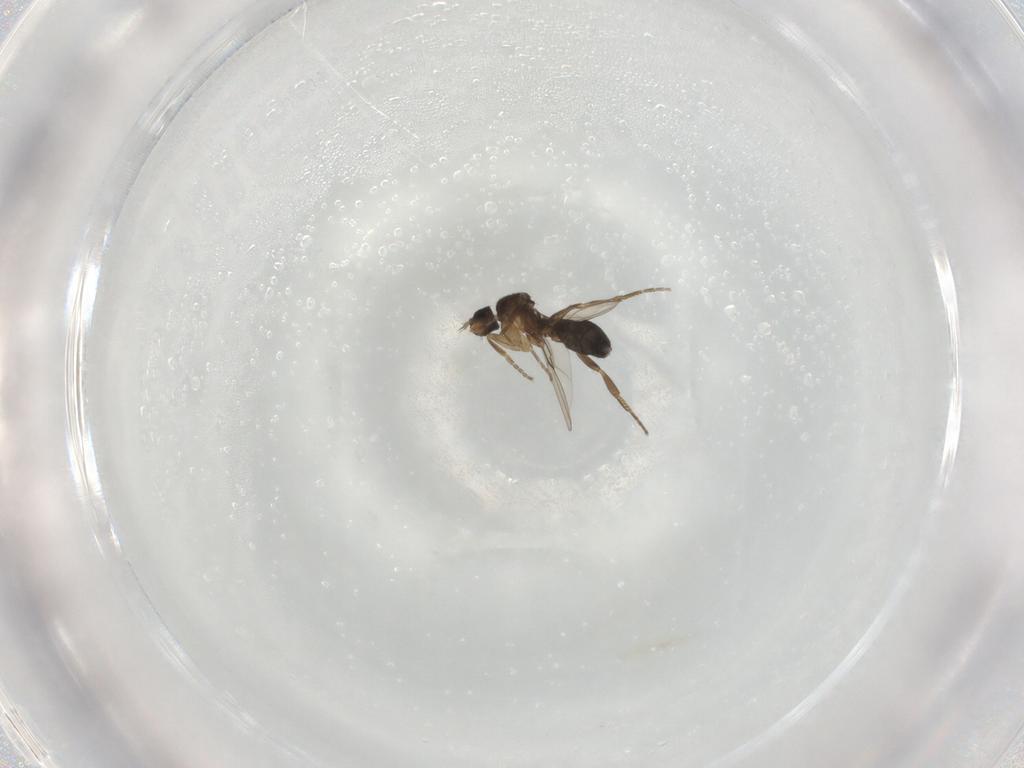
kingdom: Animalia
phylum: Arthropoda
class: Insecta
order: Diptera
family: Phoridae
